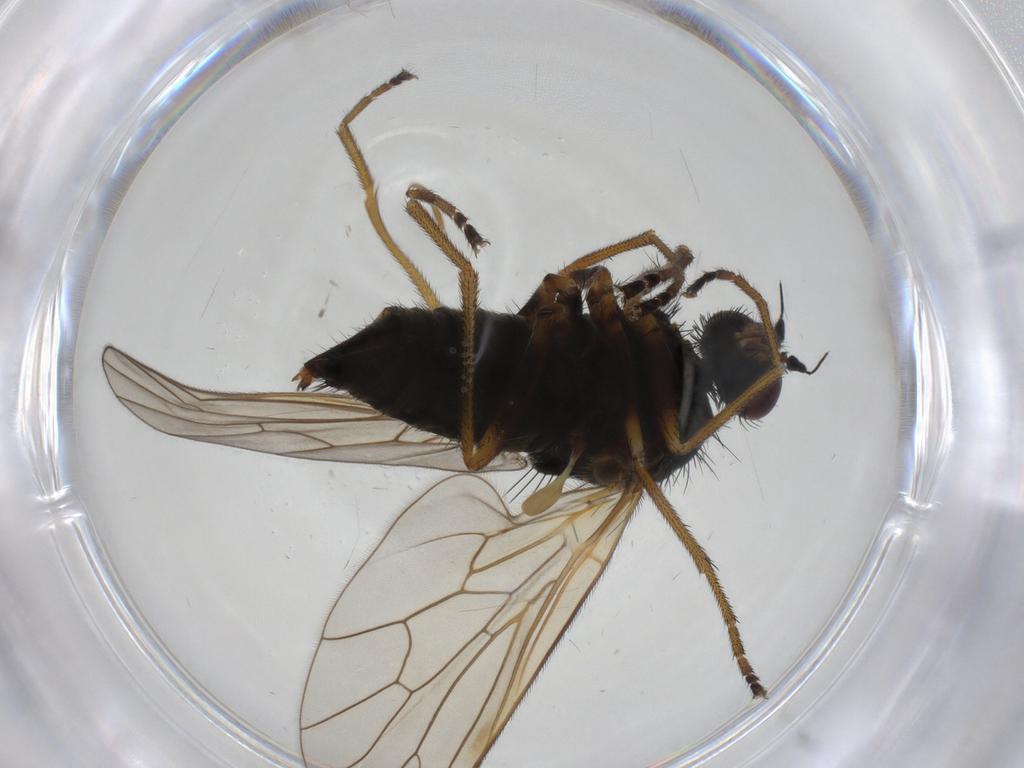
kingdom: Animalia
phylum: Arthropoda
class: Insecta
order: Diptera
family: Brachystomatidae
